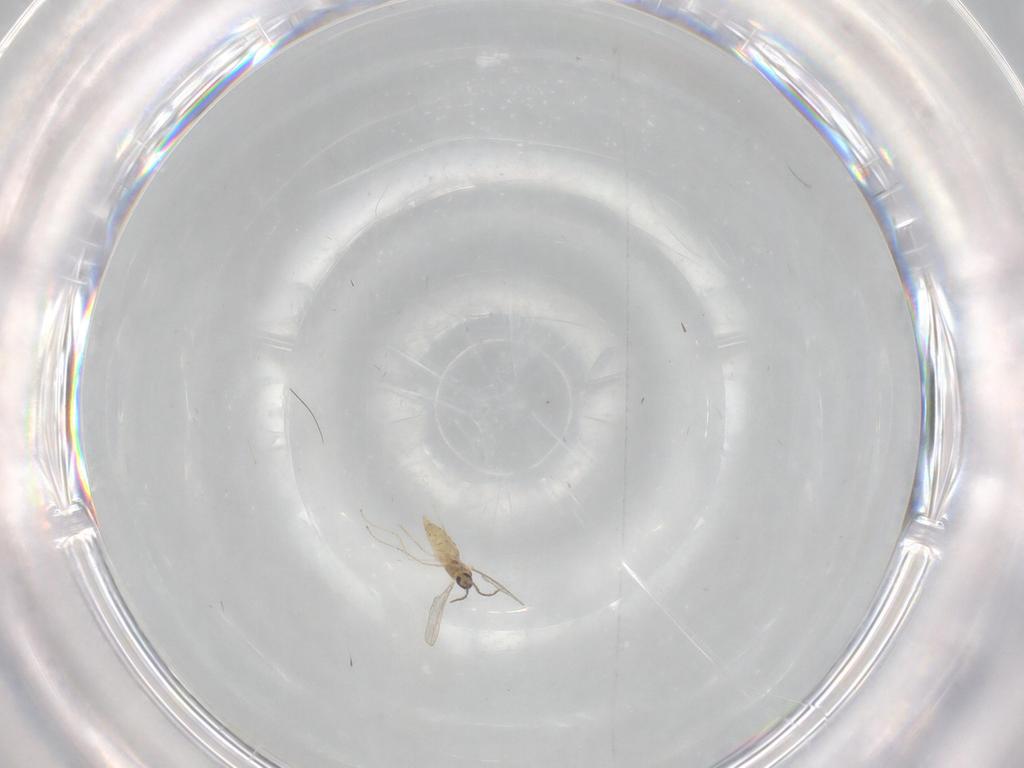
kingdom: Animalia
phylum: Arthropoda
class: Insecta
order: Diptera
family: Cecidomyiidae
